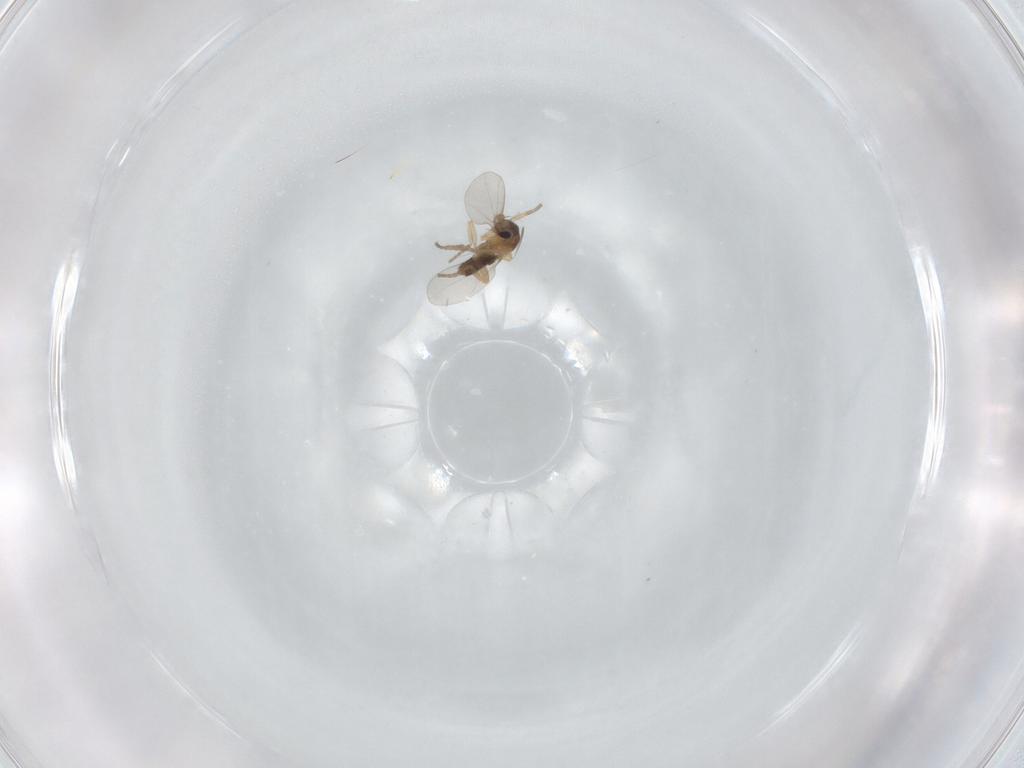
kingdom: Animalia
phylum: Arthropoda
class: Insecta
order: Diptera
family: Phoridae
